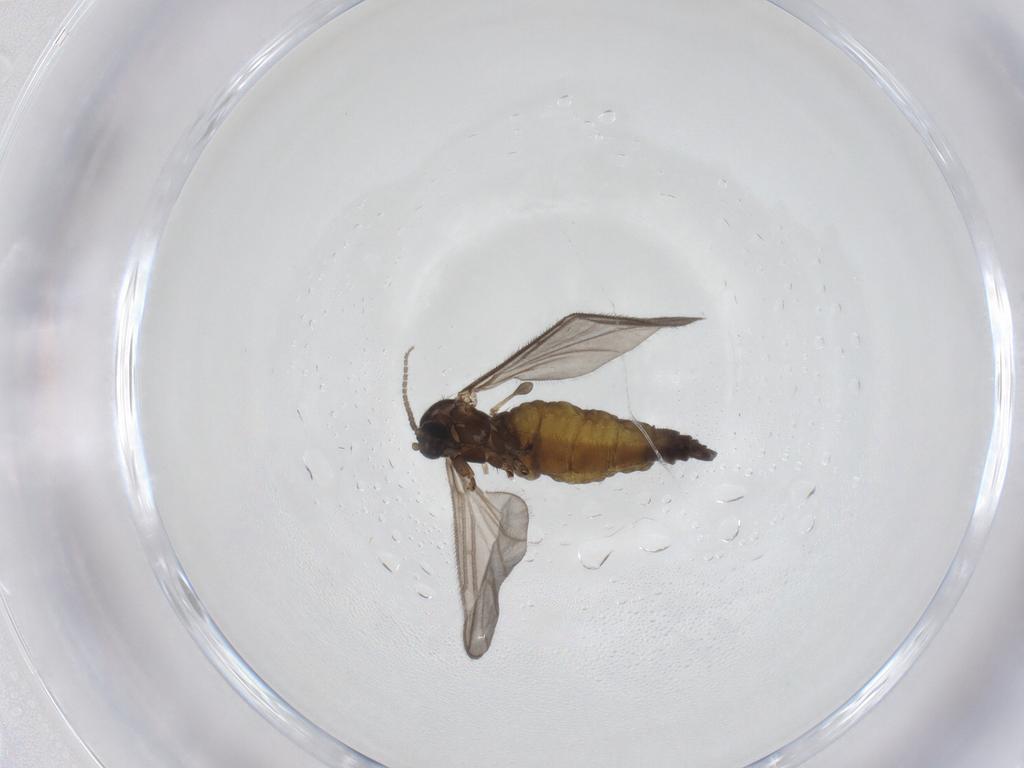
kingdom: Animalia
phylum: Arthropoda
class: Insecta
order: Diptera
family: Sciaridae
